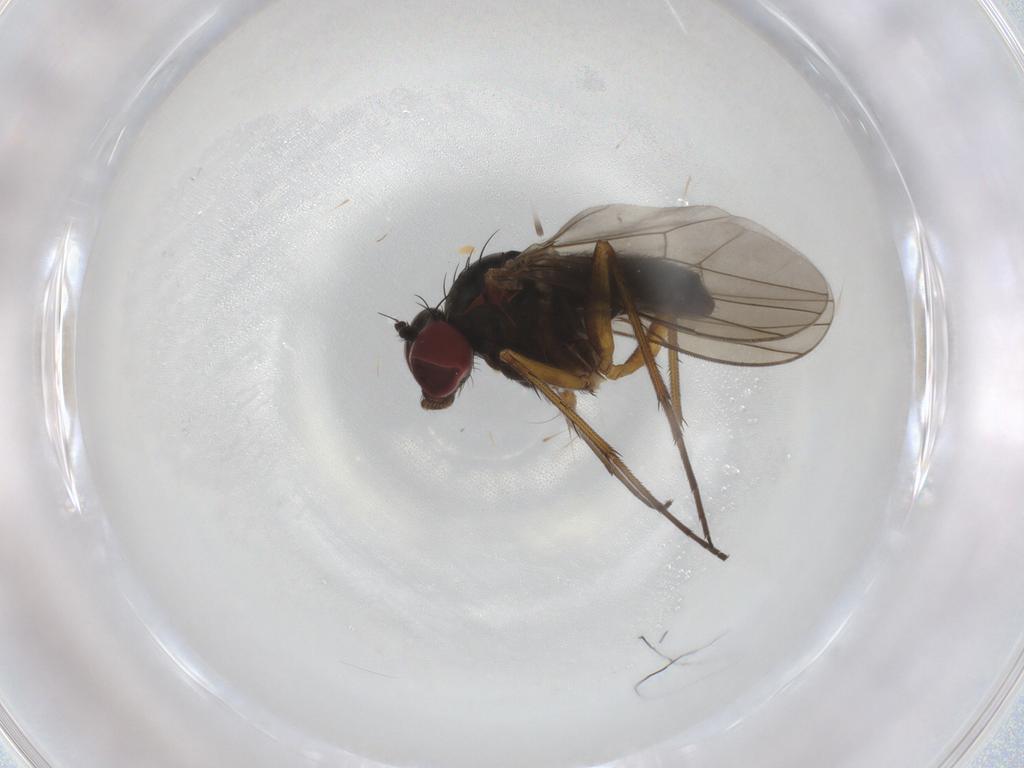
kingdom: Animalia
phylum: Arthropoda
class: Insecta
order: Diptera
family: Dolichopodidae
